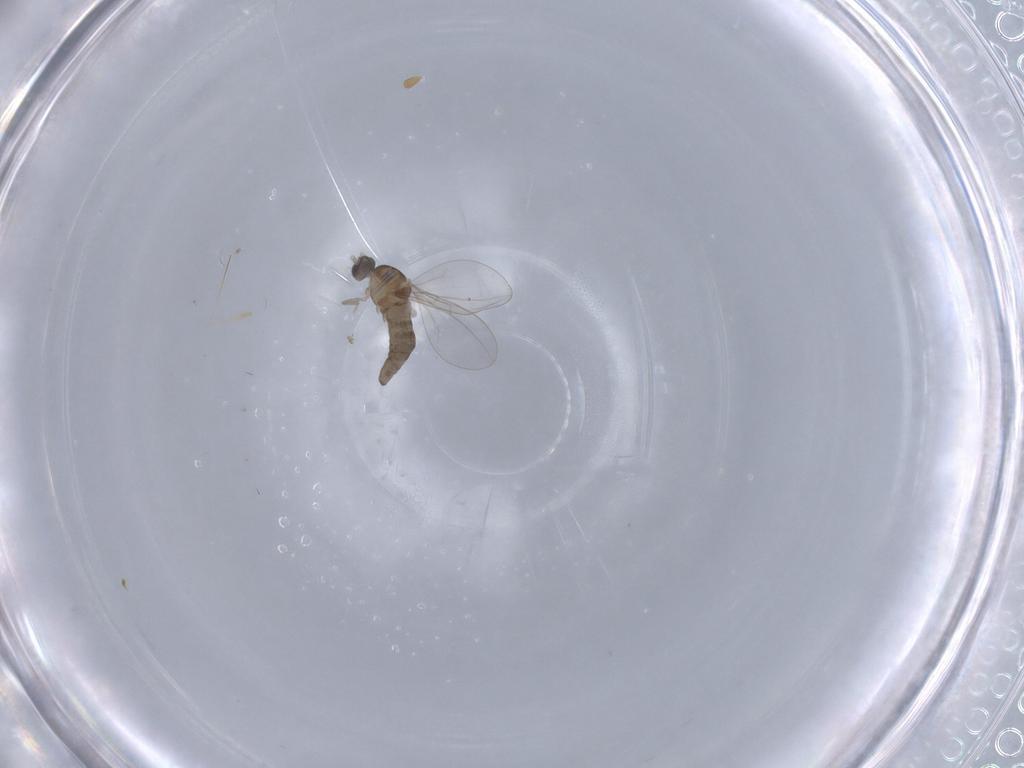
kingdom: Animalia
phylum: Arthropoda
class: Insecta
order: Diptera
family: Cecidomyiidae
